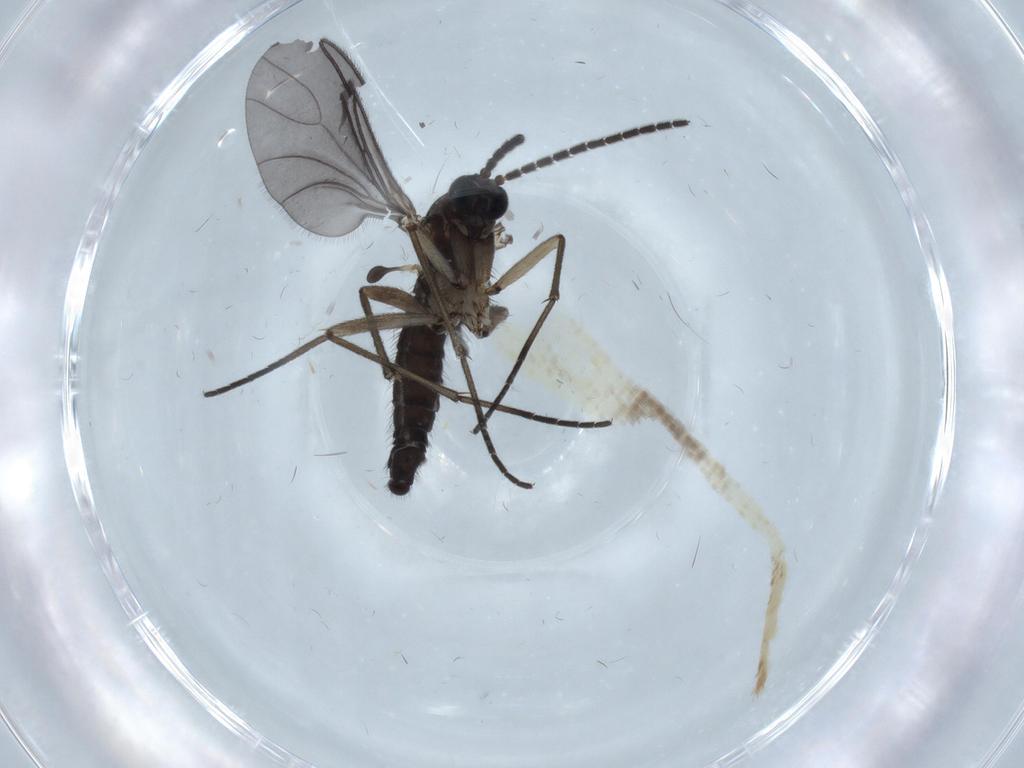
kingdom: Animalia
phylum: Arthropoda
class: Insecta
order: Diptera
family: Sciaridae
